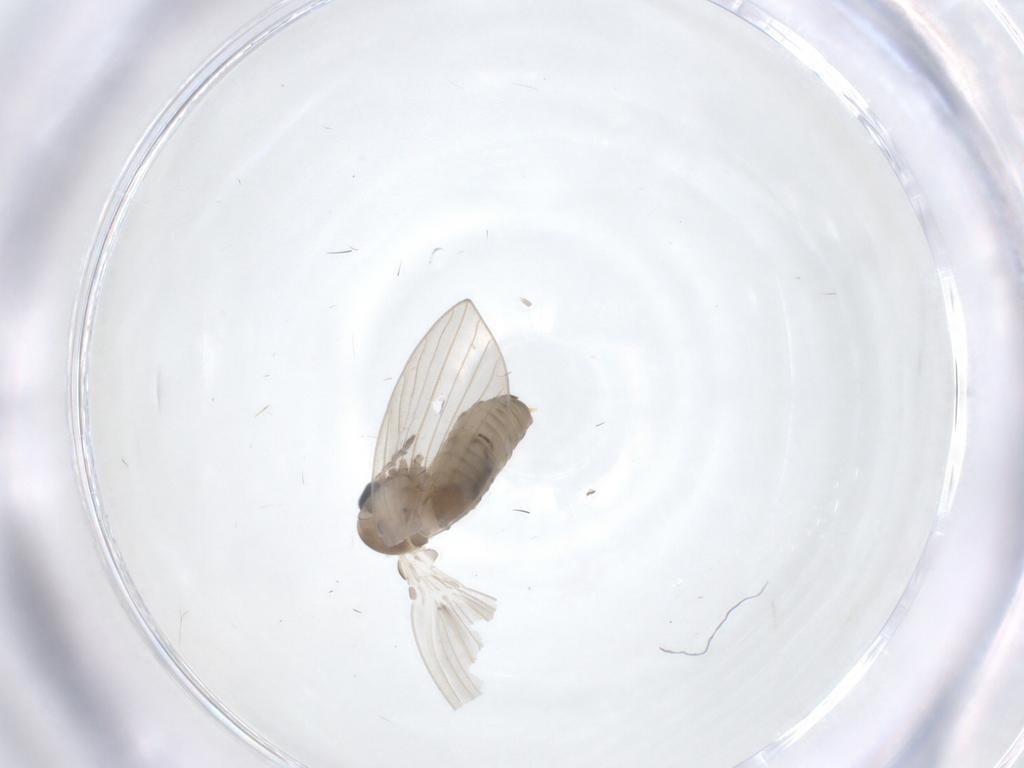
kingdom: Animalia
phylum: Arthropoda
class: Insecta
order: Diptera
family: Psychodidae
